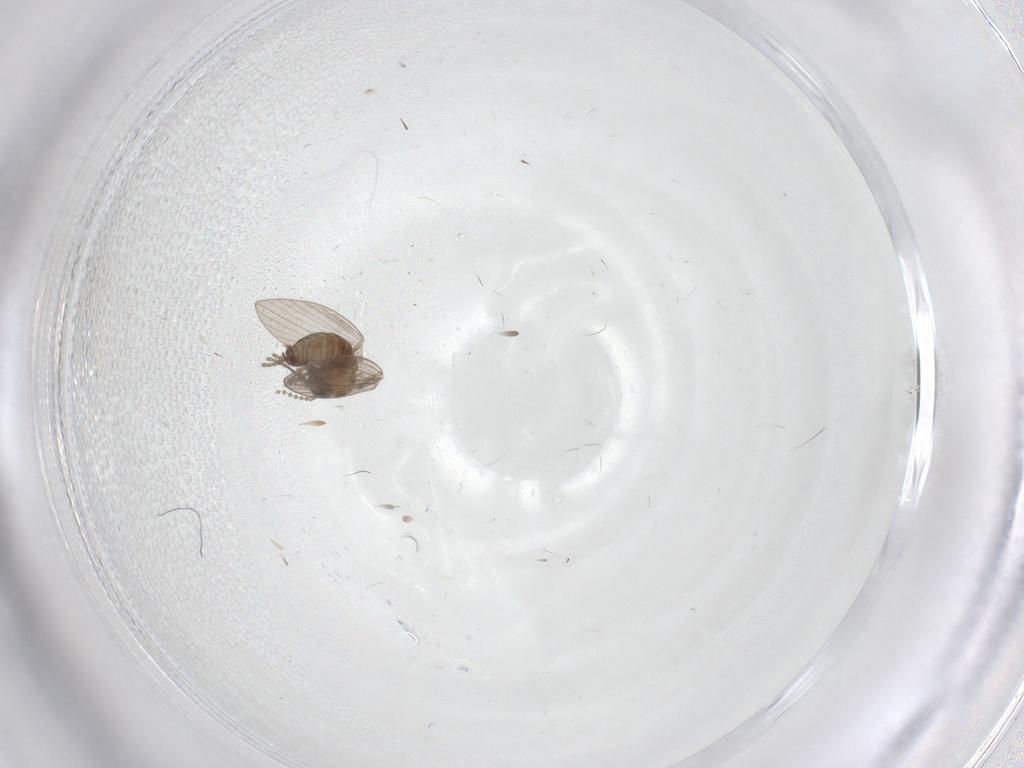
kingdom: Animalia
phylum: Arthropoda
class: Insecta
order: Diptera
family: Psychodidae
